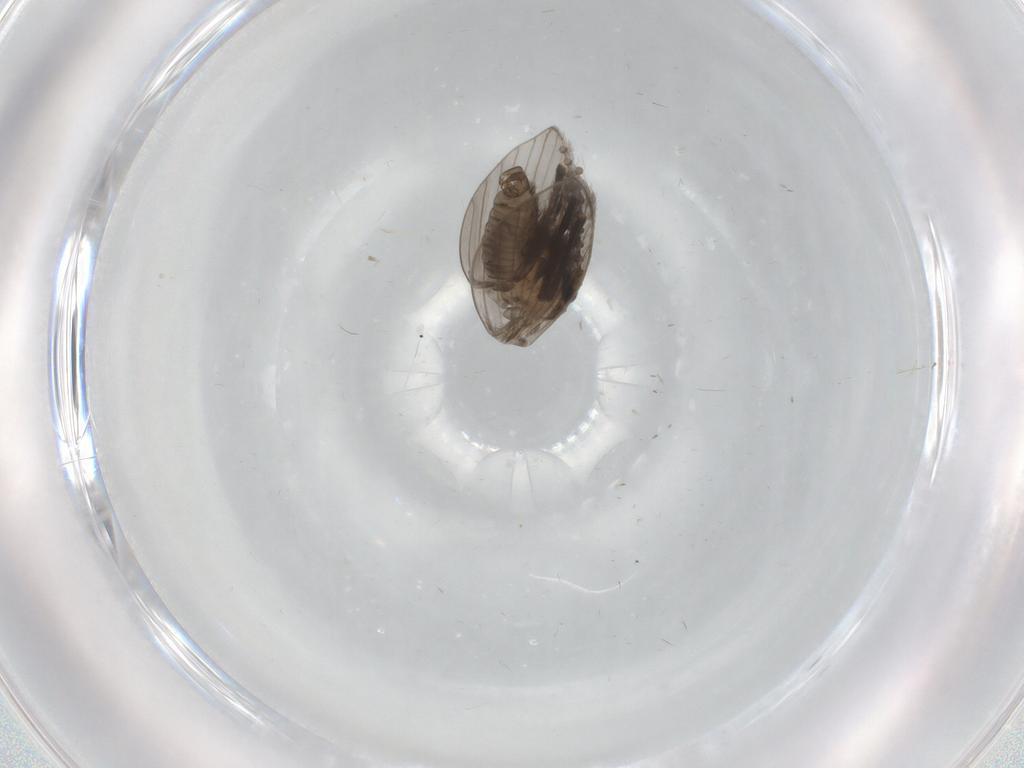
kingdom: Animalia
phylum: Arthropoda
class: Insecta
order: Diptera
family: Psychodidae
